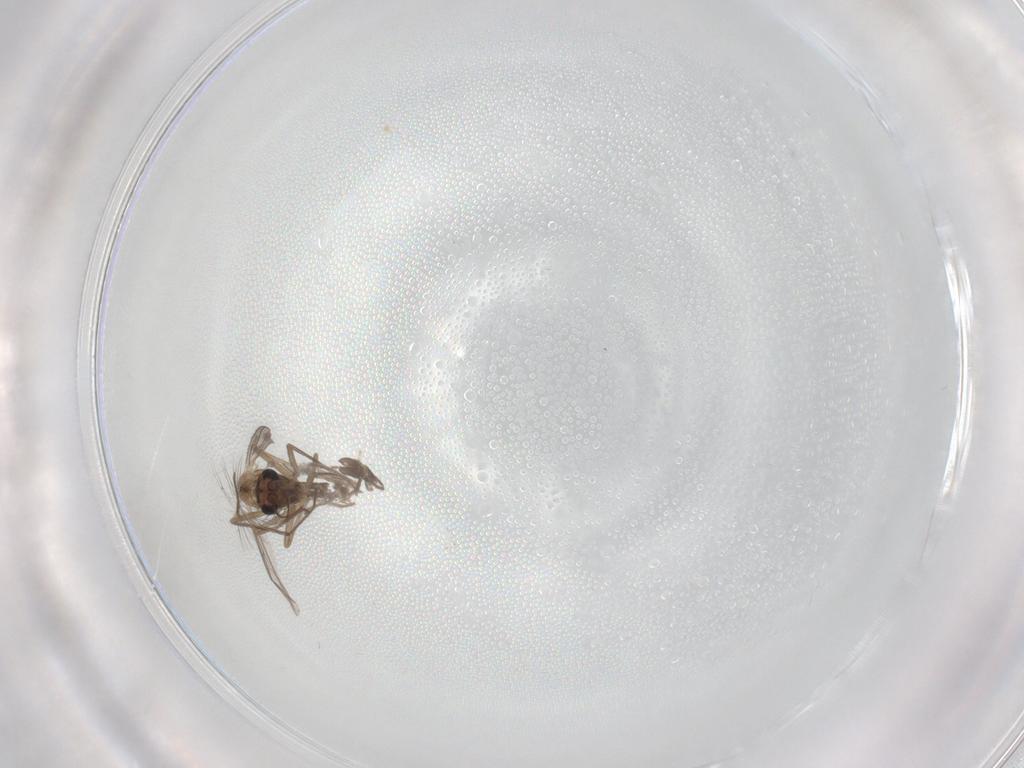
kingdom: Animalia
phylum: Arthropoda
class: Insecta
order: Diptera
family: Chironomidae
